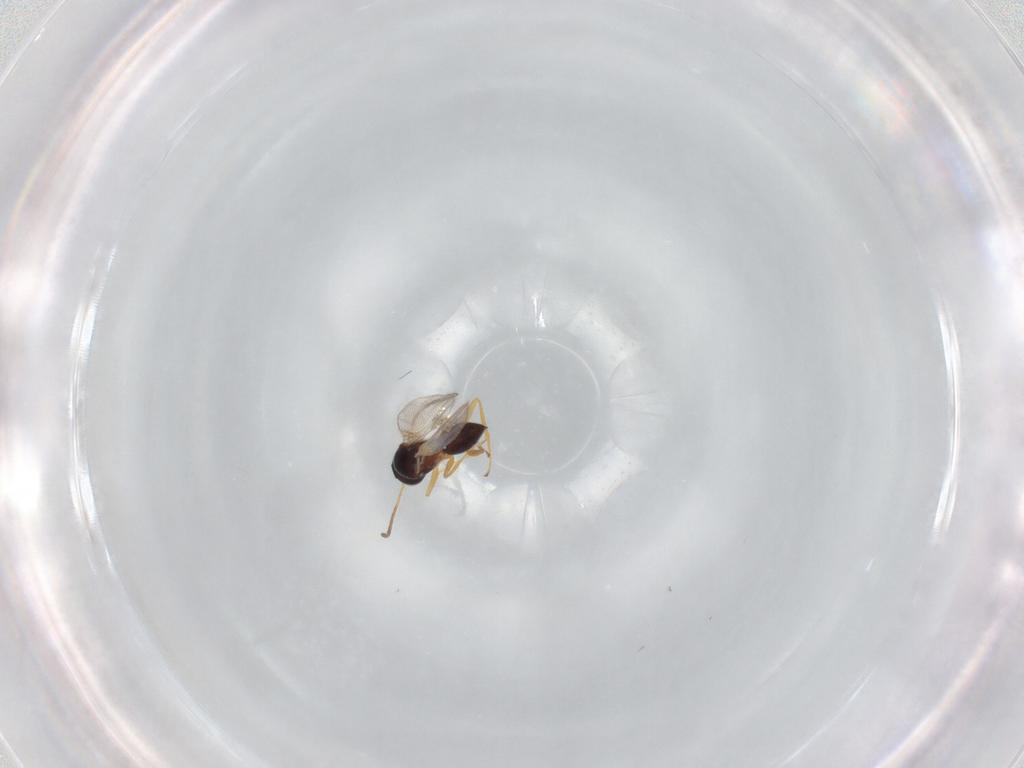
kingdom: Animalia
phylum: Arthropoda
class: Insecta
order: Hymenoptera
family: Figitidae
